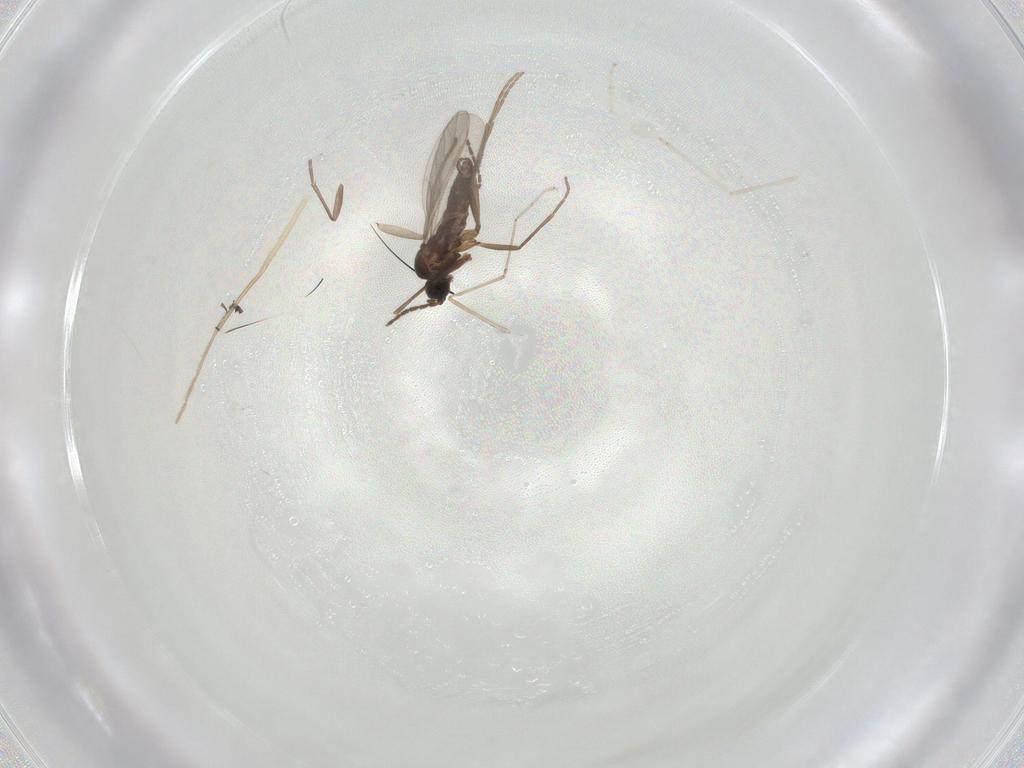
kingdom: Animalia
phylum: Arthropoda
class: Insecta
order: Diptera
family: Sciaridae
